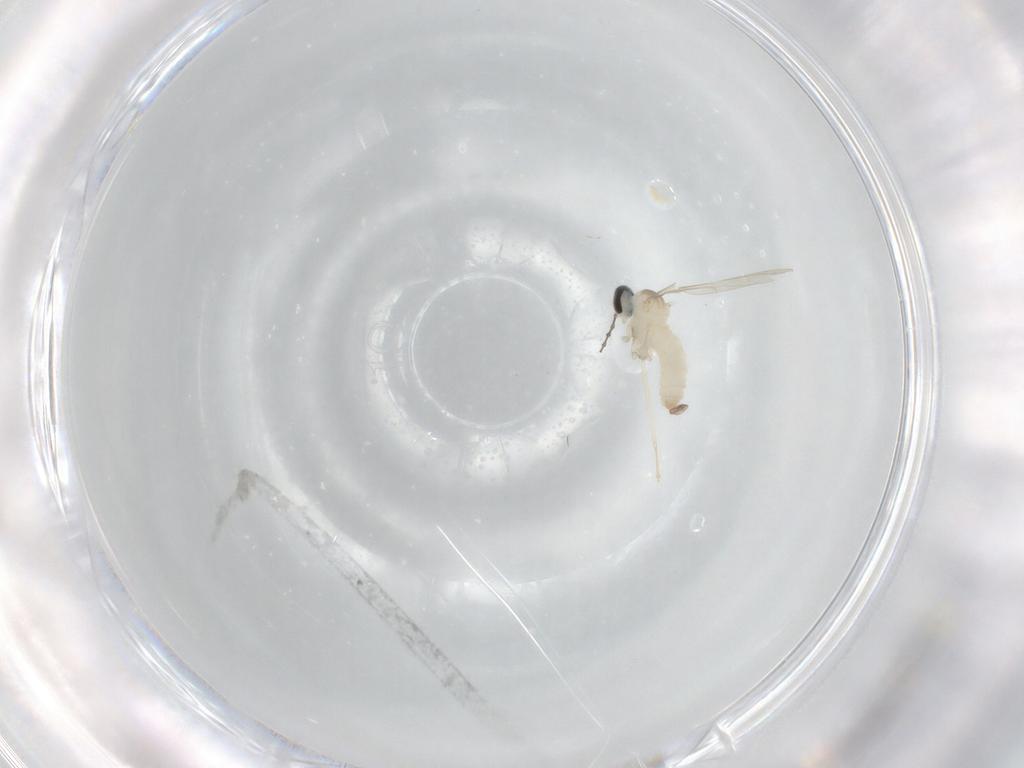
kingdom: Animalia
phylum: Arthropoda
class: Insecta
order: Diptera
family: Cecidomyiidae
